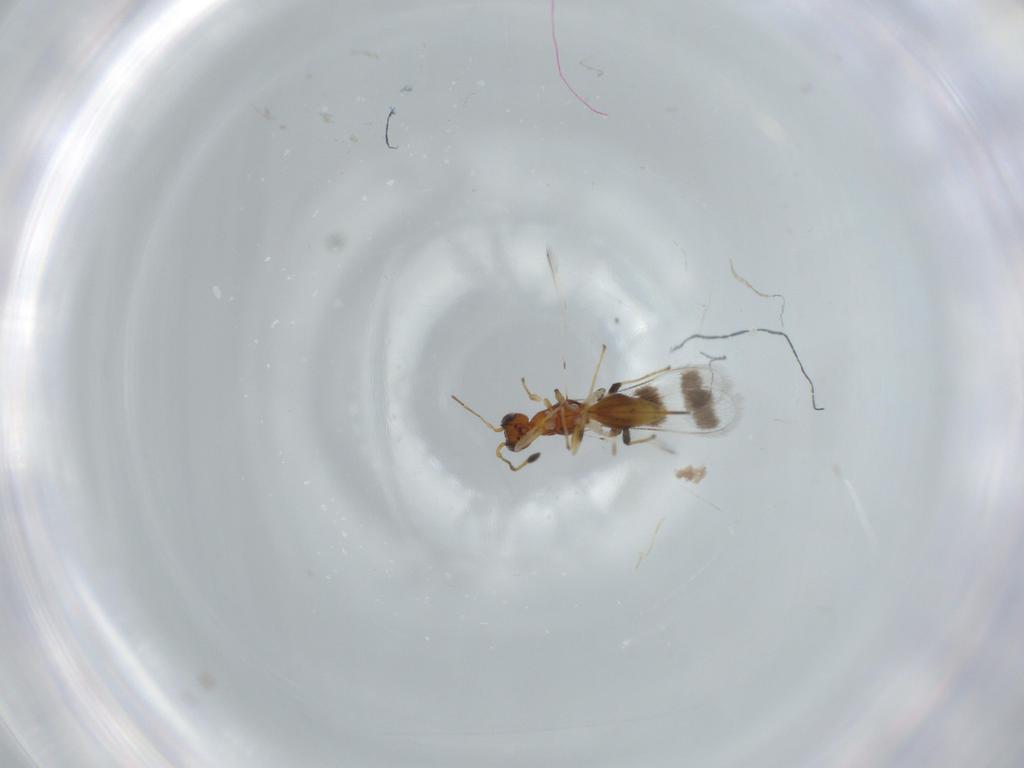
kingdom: Animalia
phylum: Arthropoda
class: Insecta
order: Hymenoptera
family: Mymaridae
